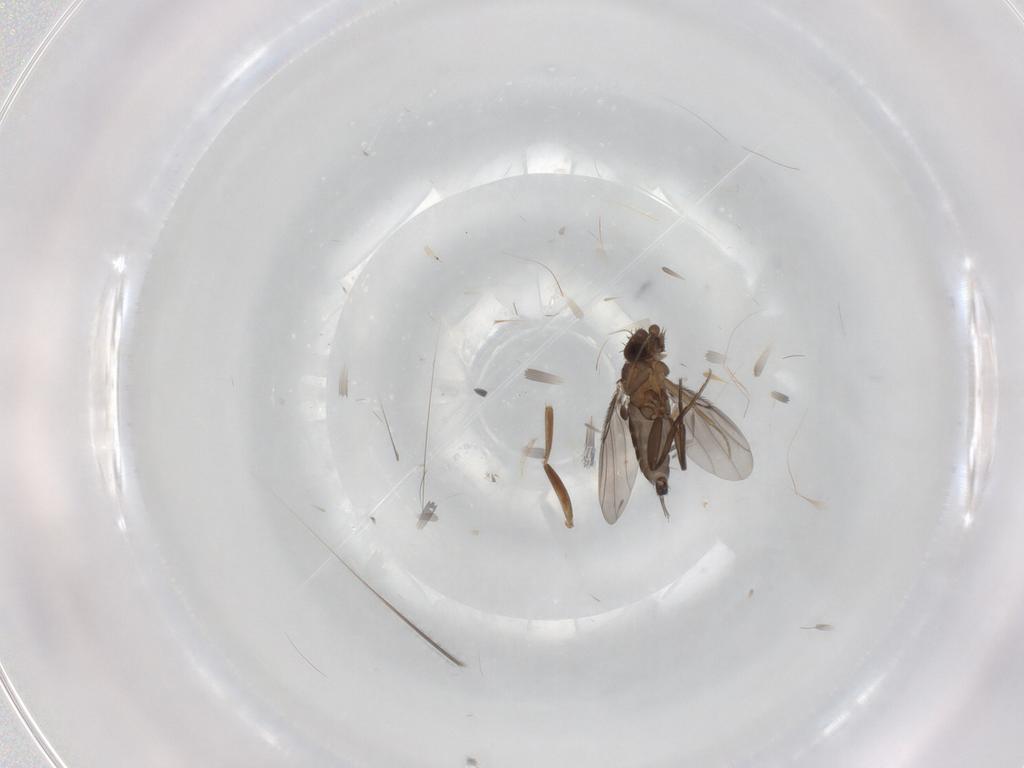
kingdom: Animalia
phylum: Arthropoda
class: Insecta
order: Diptera
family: Phoridae
